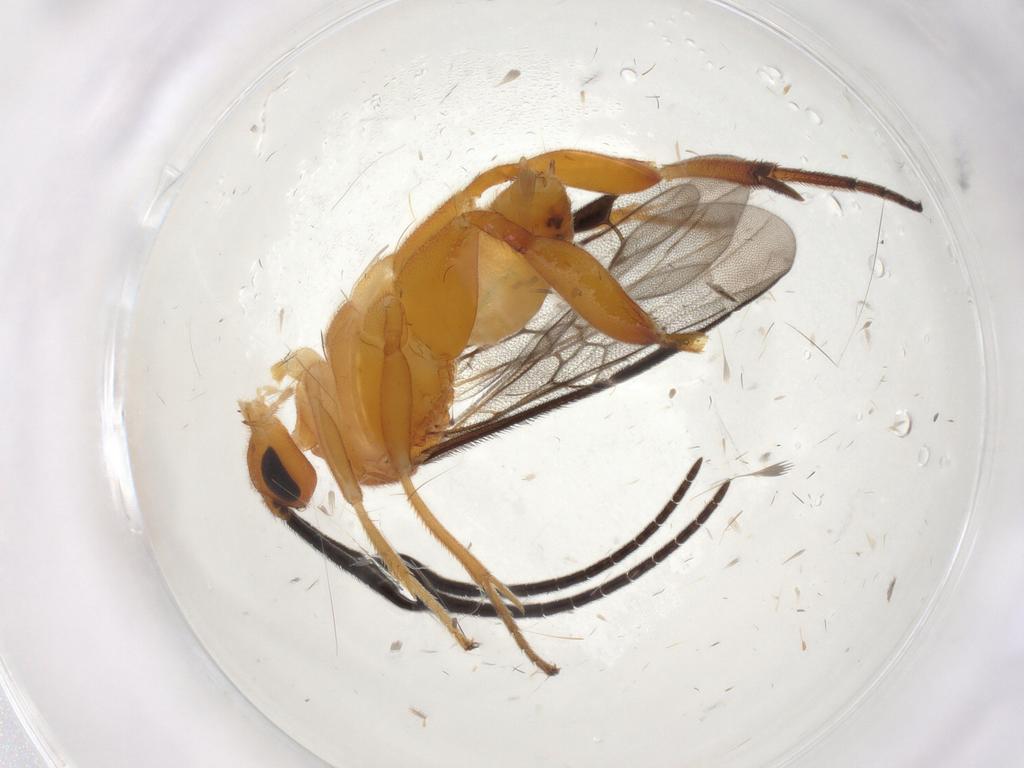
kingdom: Animalia
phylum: Arthropoda
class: Insecta
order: Hymenoptera
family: Braconidae
